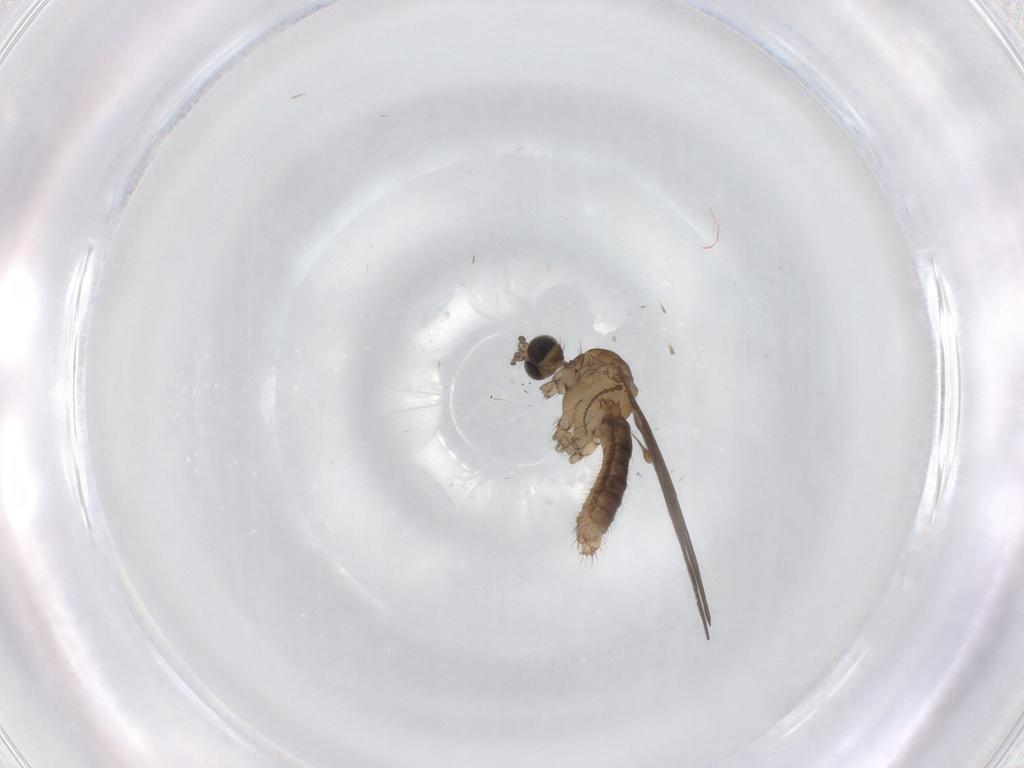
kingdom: Animalia
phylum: Arthropoda
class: Insecta
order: Diptera
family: Cecidomyiidae
